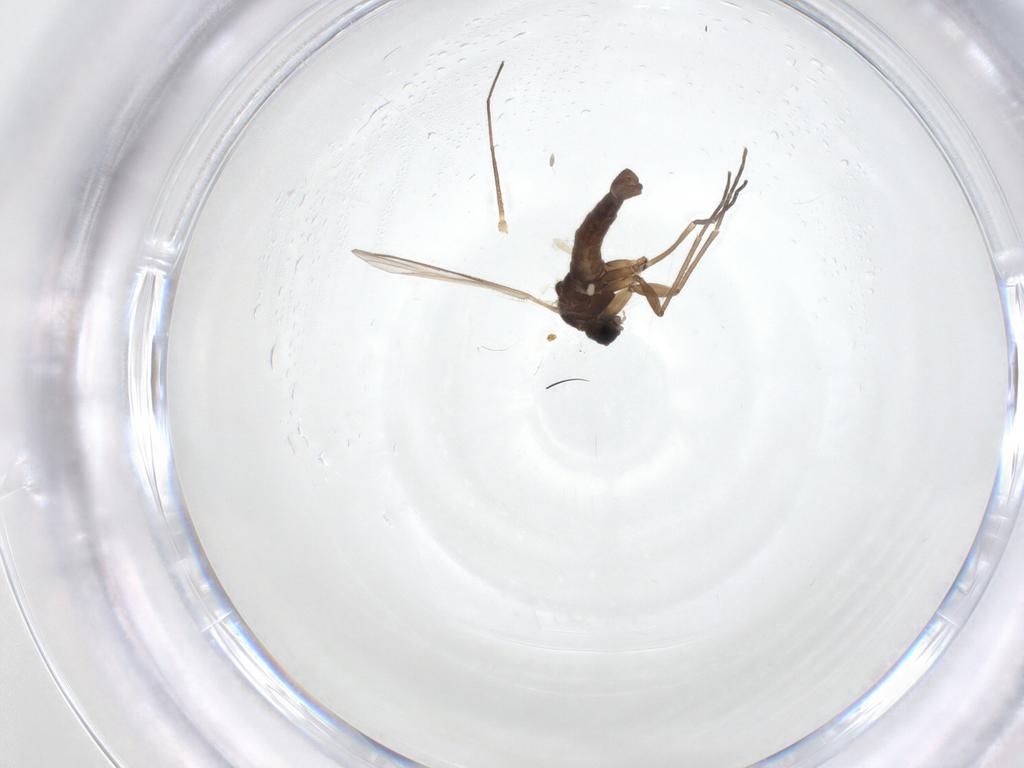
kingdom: Animalia
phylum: Arthropoda
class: Insecta
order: Diptera
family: Sciaridae
